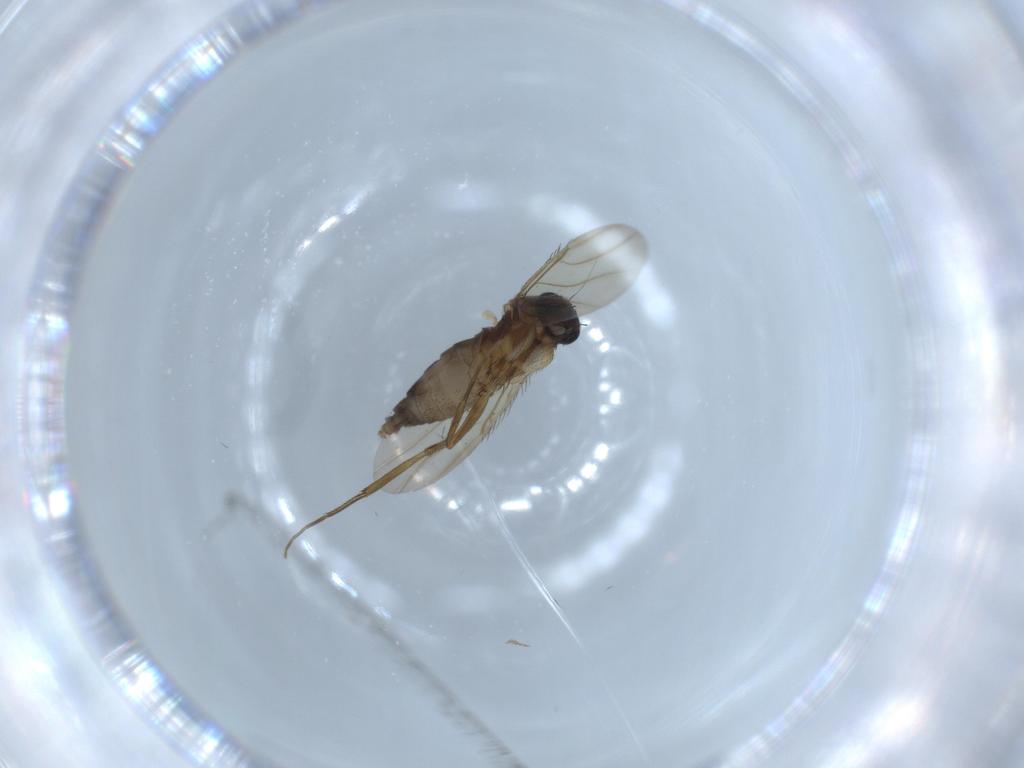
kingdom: Animalia
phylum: Arthropoda
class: Insecta
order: Diptera
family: Phoridae
